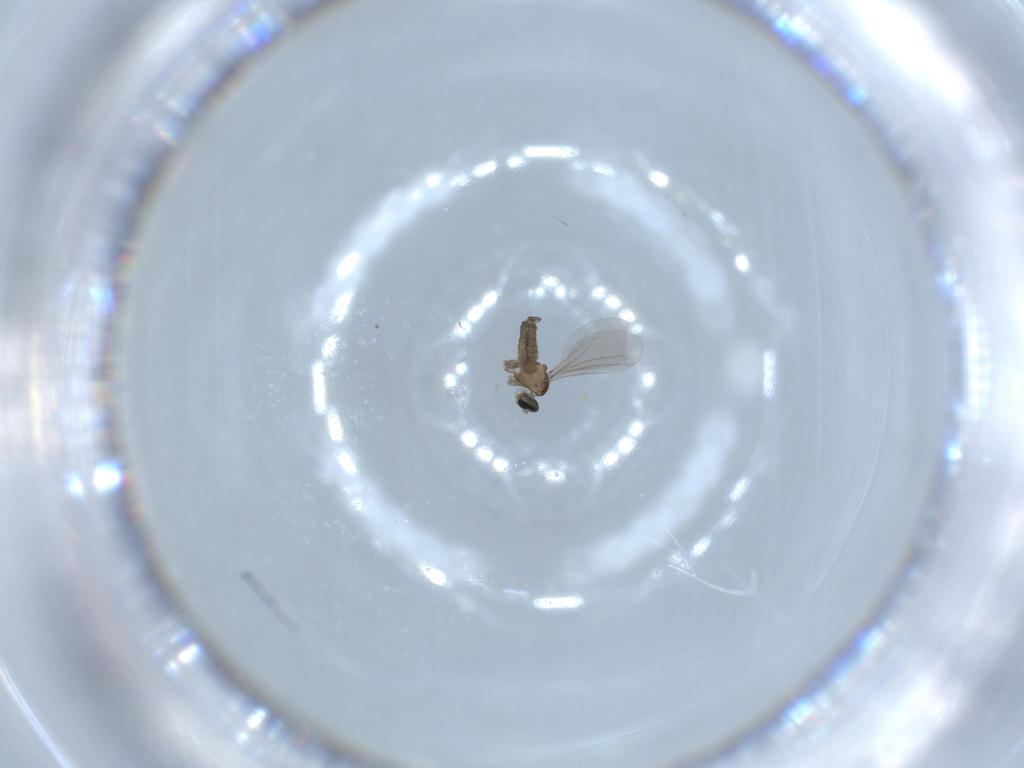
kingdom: Animalia
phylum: Arthropoda
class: Insecta
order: Diptera
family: Cecidomyiidae
